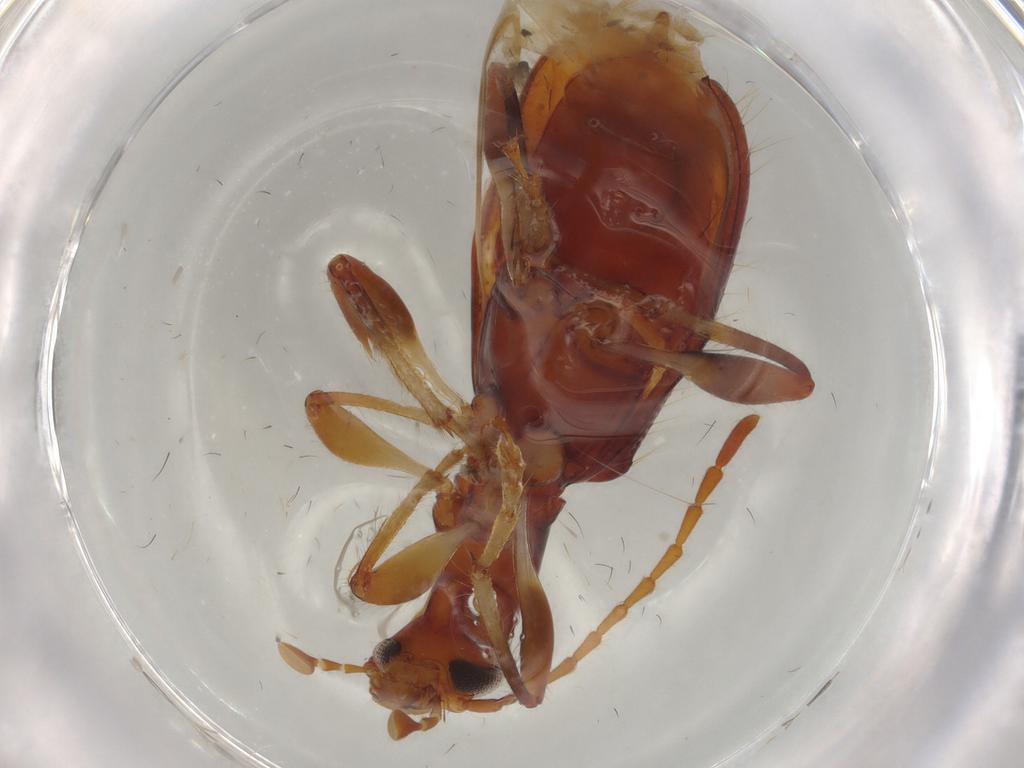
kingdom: Animalia
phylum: Arthropoda
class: Insecta
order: Coleoptera
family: Tenebrionidae
